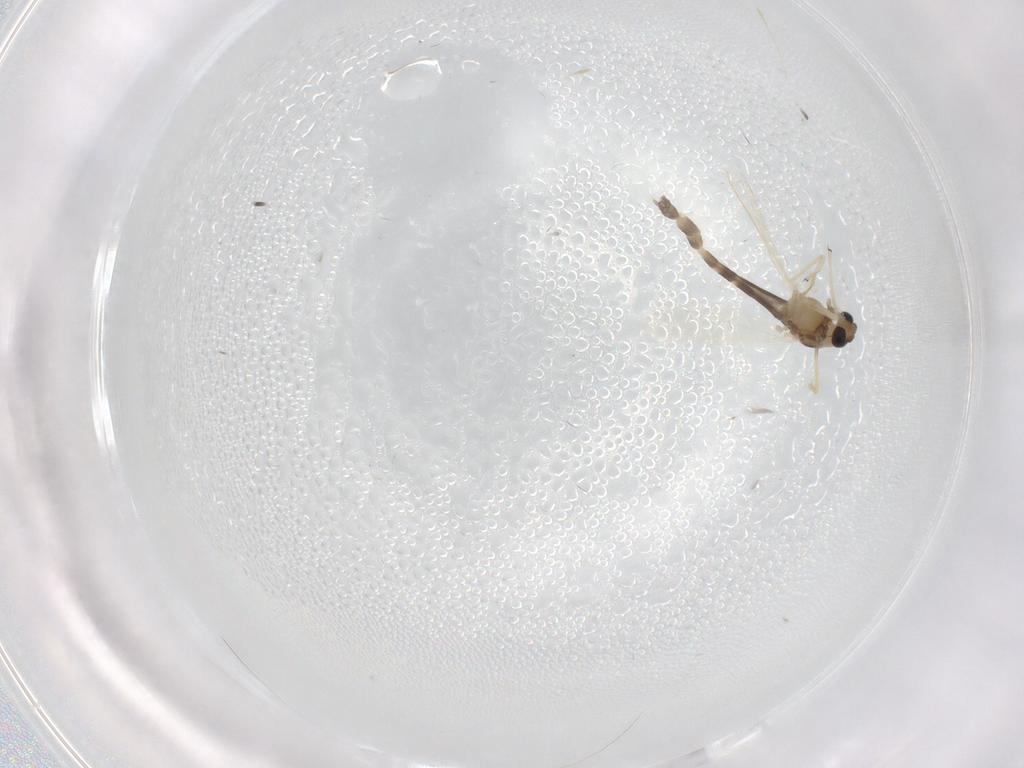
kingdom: Animalia
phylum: Arthropoda
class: Insecta
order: Diptera
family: Chironomidae
